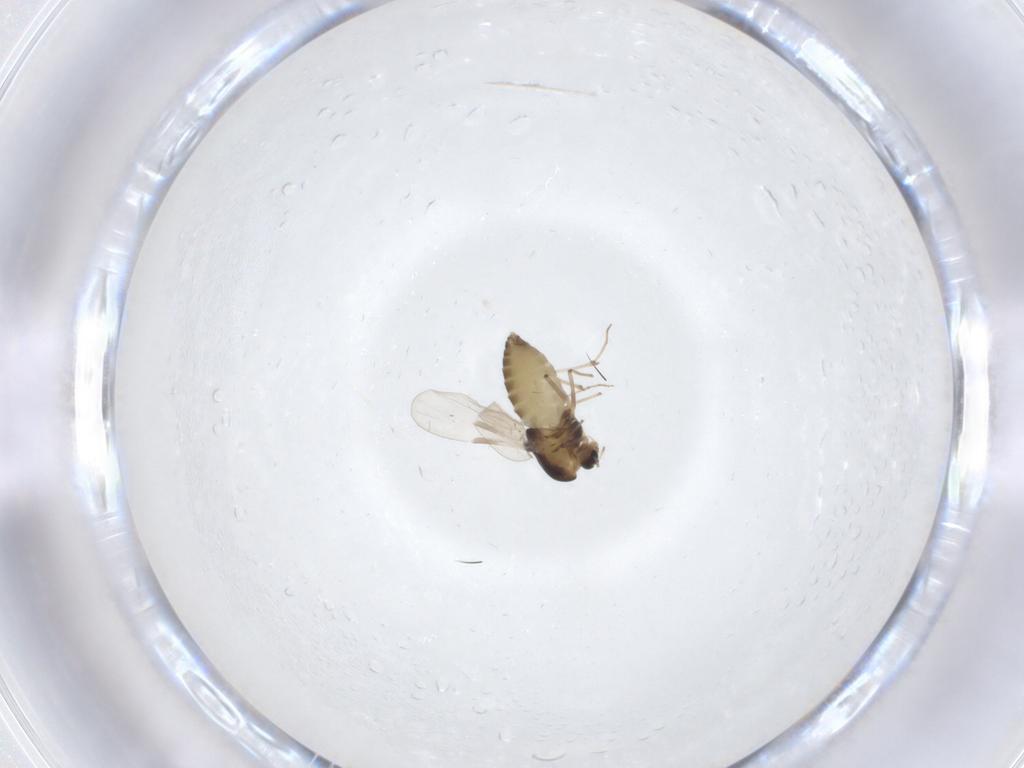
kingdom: Animalia
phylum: Arthropoda
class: Insecta
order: Diptera
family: Chironomidae
